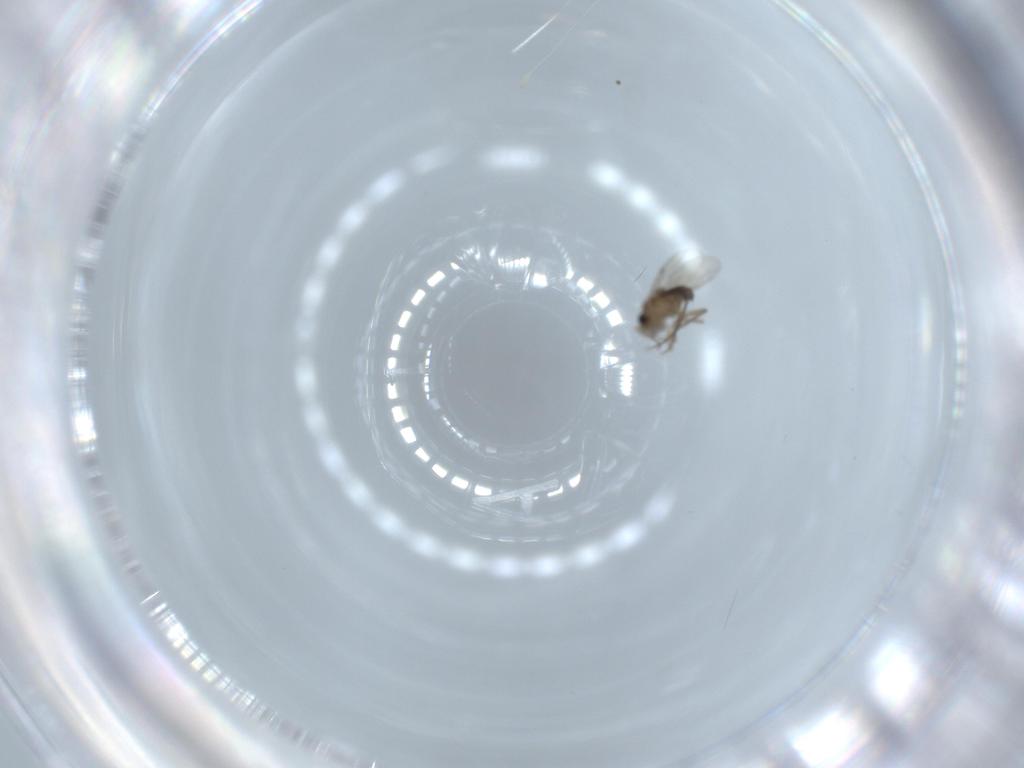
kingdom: Animalia
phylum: Arthropoda
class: Insecta
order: Diptera
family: Phoridae
